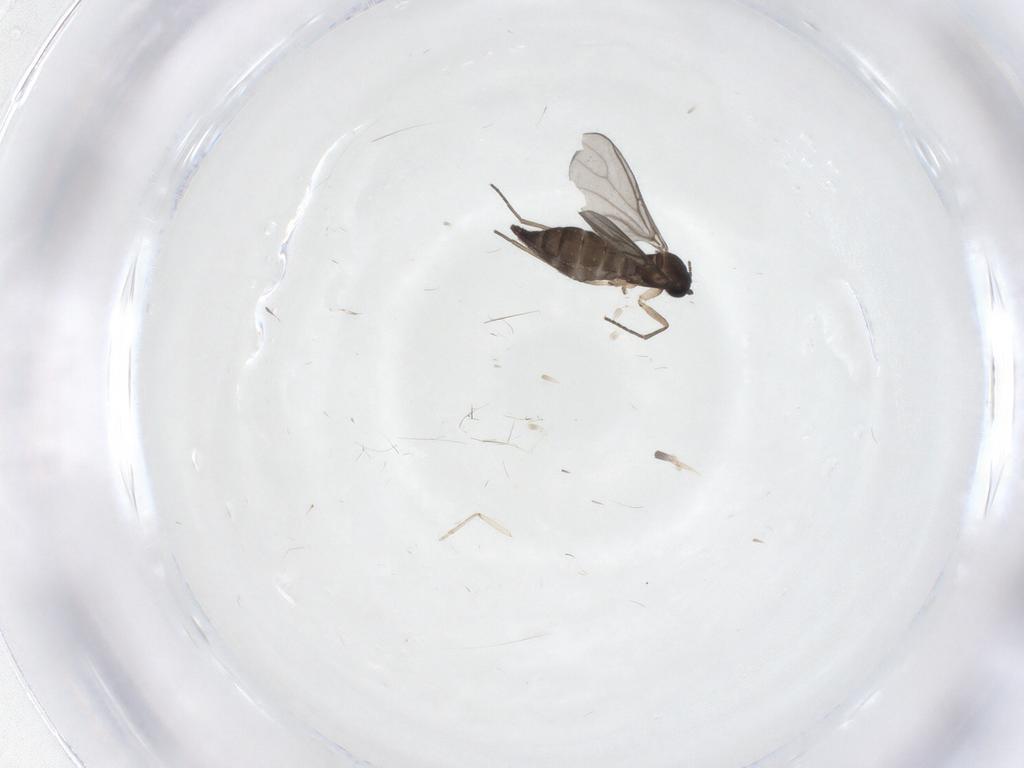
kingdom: Animalia
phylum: Arthropoda
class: Insecta
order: Diptera
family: Sciaridae
